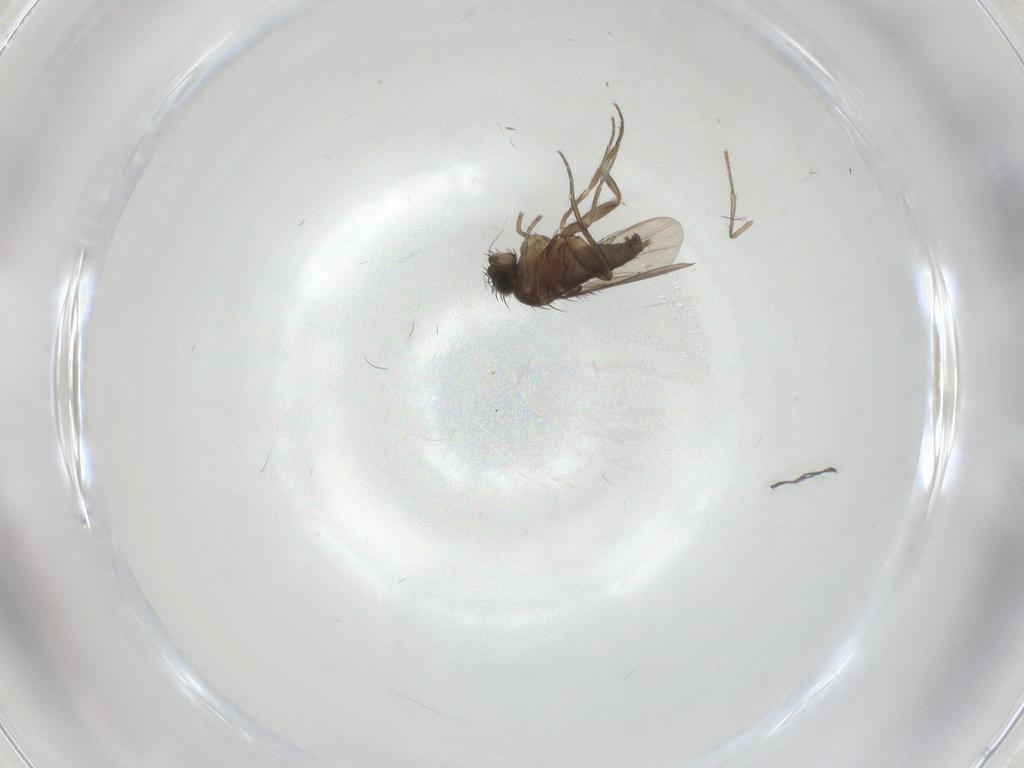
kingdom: Animalia
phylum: Arthropoda
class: Insecta
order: Diptera
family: Phoridae
